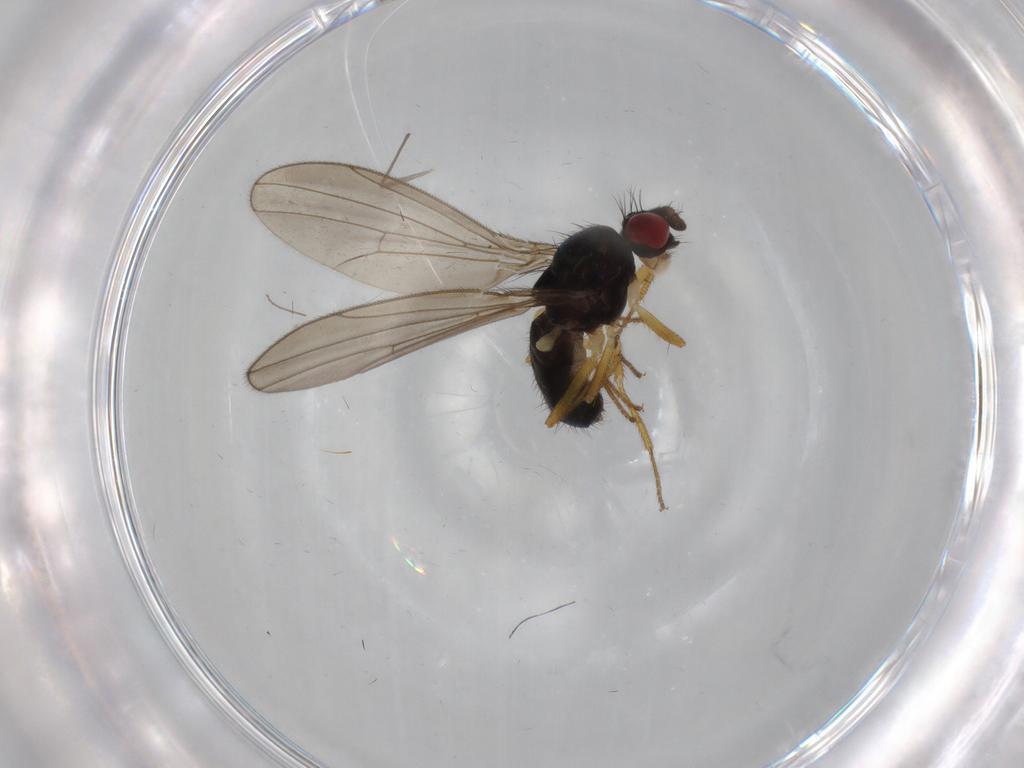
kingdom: Animalia
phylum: Arthropoda
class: Insecta
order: Diptera
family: Drosophilidae
